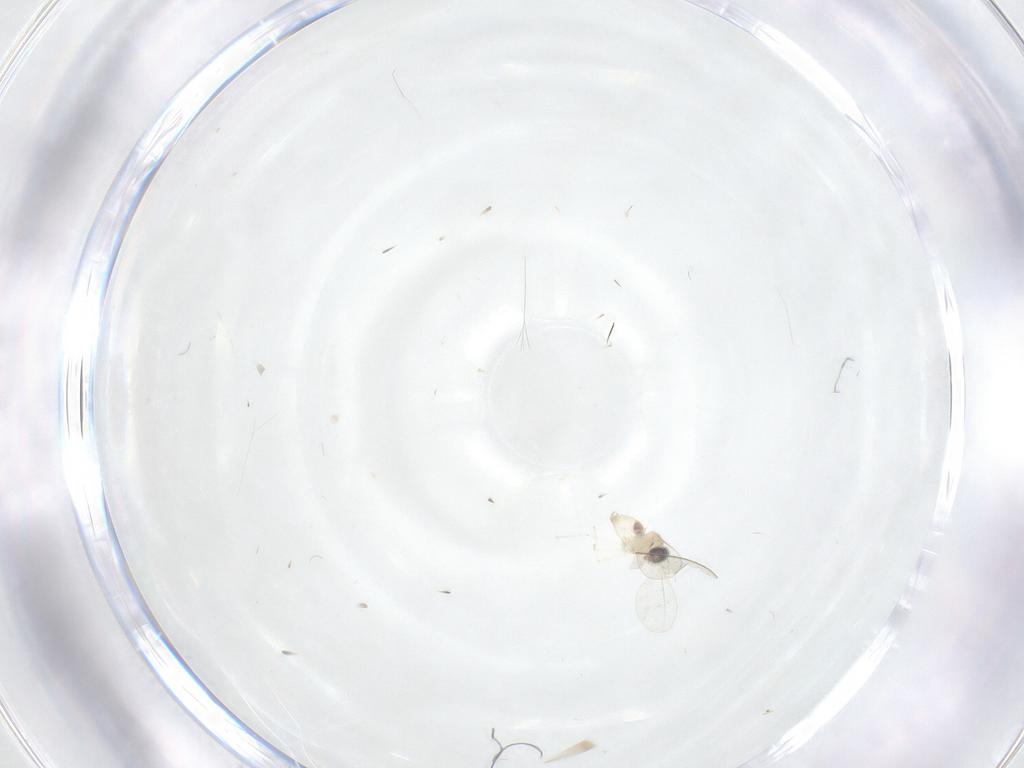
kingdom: Animalia
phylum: Arthropoda
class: Insecta
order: Diptera
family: Cecidomyiidae
